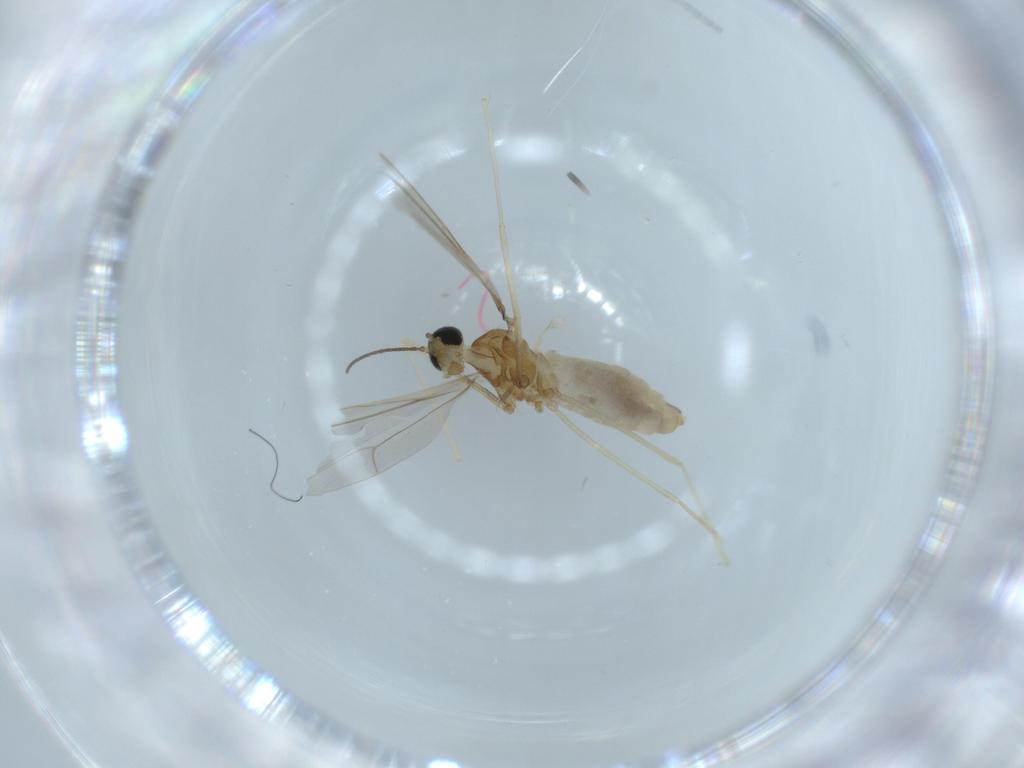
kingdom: Animalia
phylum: Arthropoda
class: Insecta
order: Diptera
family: Cecidomyiidae
